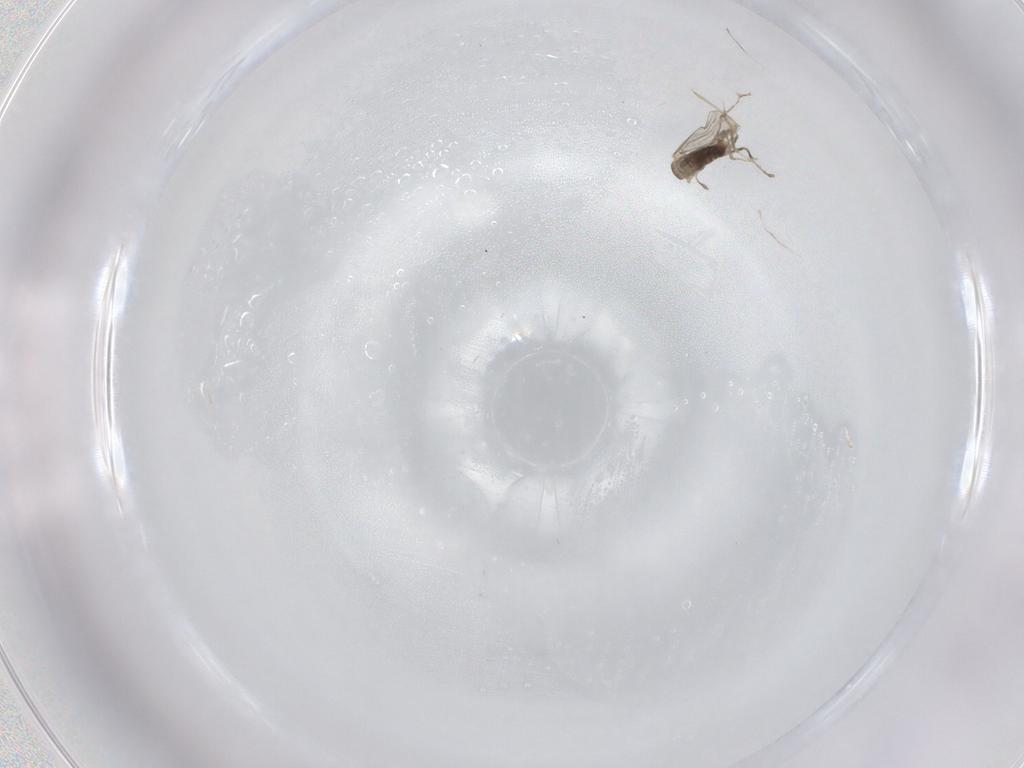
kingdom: Animalia
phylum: Arthropoda
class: Insecta
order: Diptera
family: Cecidomyiidae
